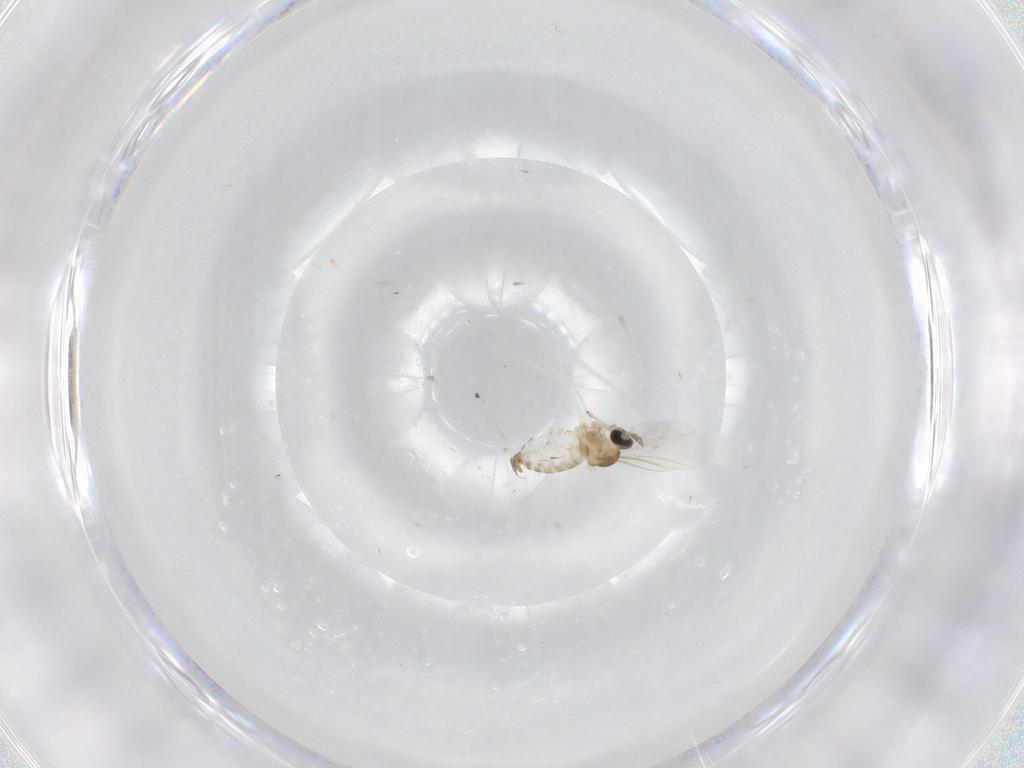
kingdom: Animalia
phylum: Arthropoda
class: Insecta
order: Diptera
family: Cecidomyiidae
